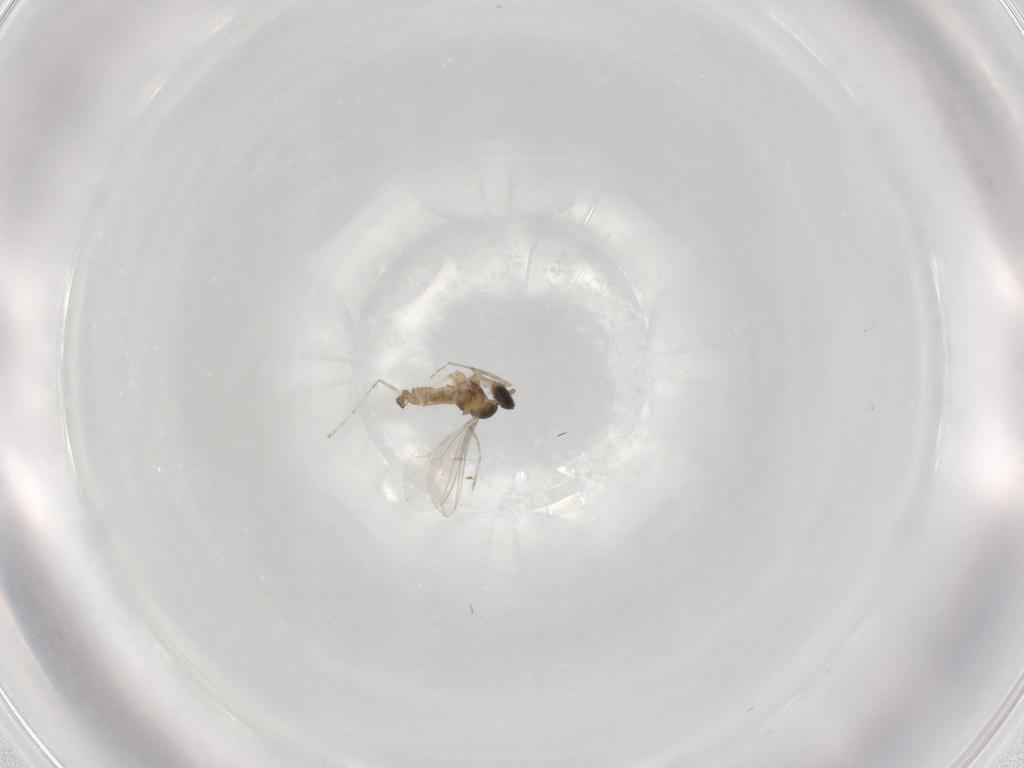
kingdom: Animalia
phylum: Arthropoda
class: Insecta
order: Diptera
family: Cecidomyiidae
